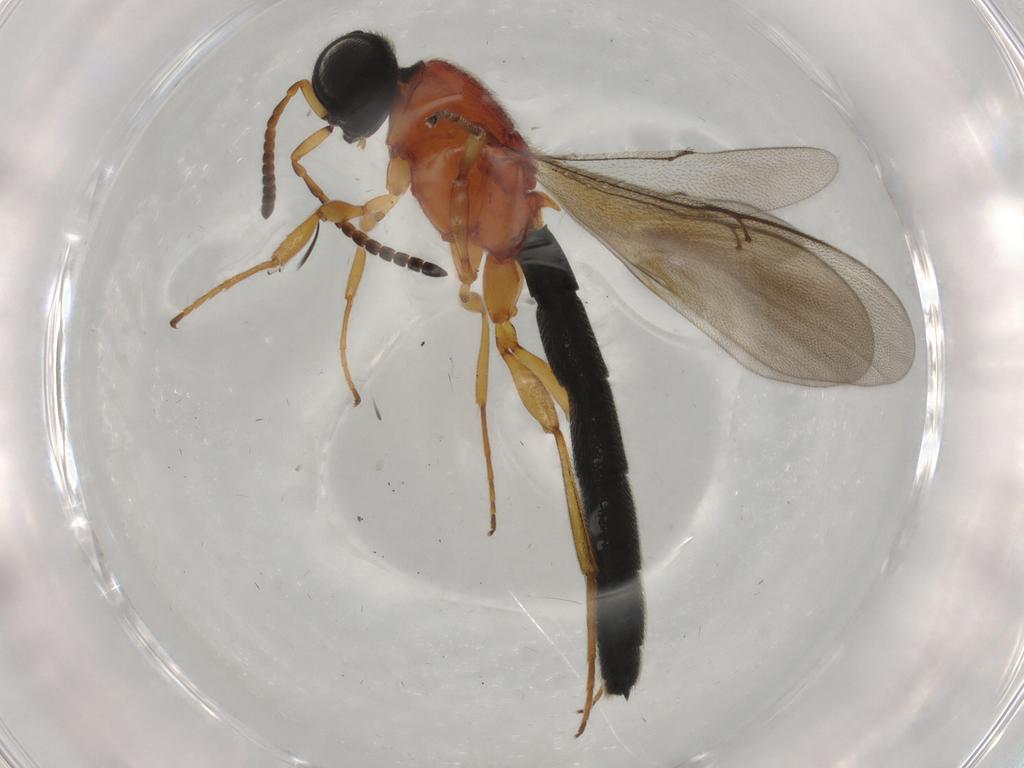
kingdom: Animalia
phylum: Arthropoda
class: Insecta
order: Hymenoptera
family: Scelionidae
